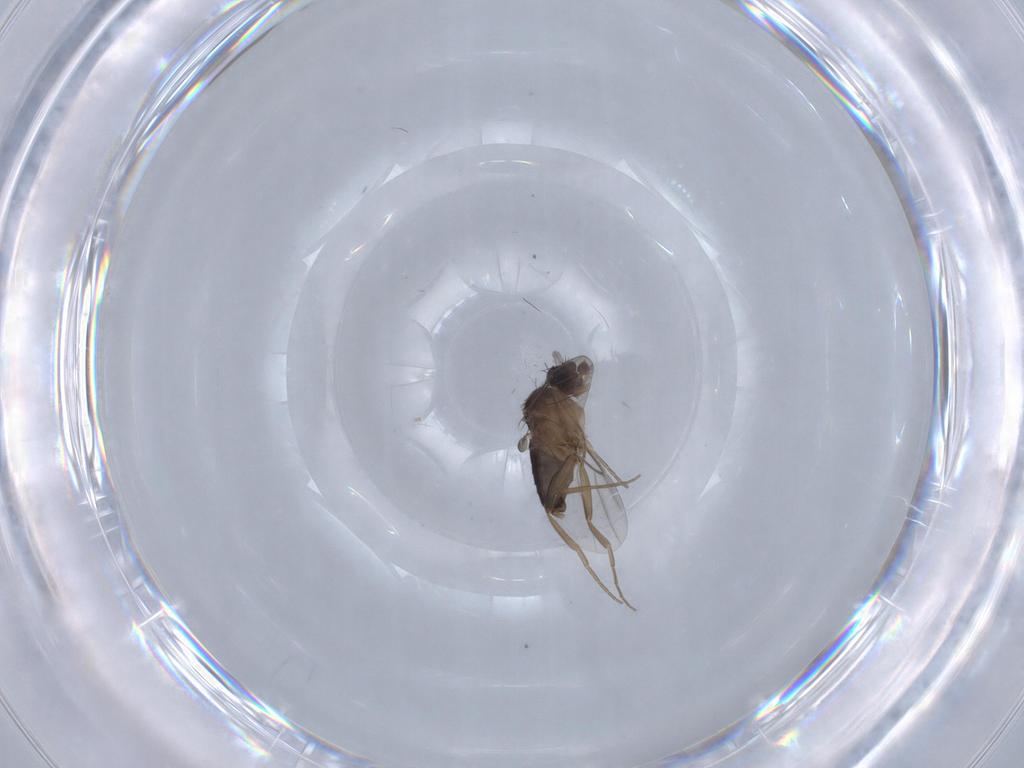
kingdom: Animalia
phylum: Arthropoda
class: Insecta
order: Diptera
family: Phoridae
